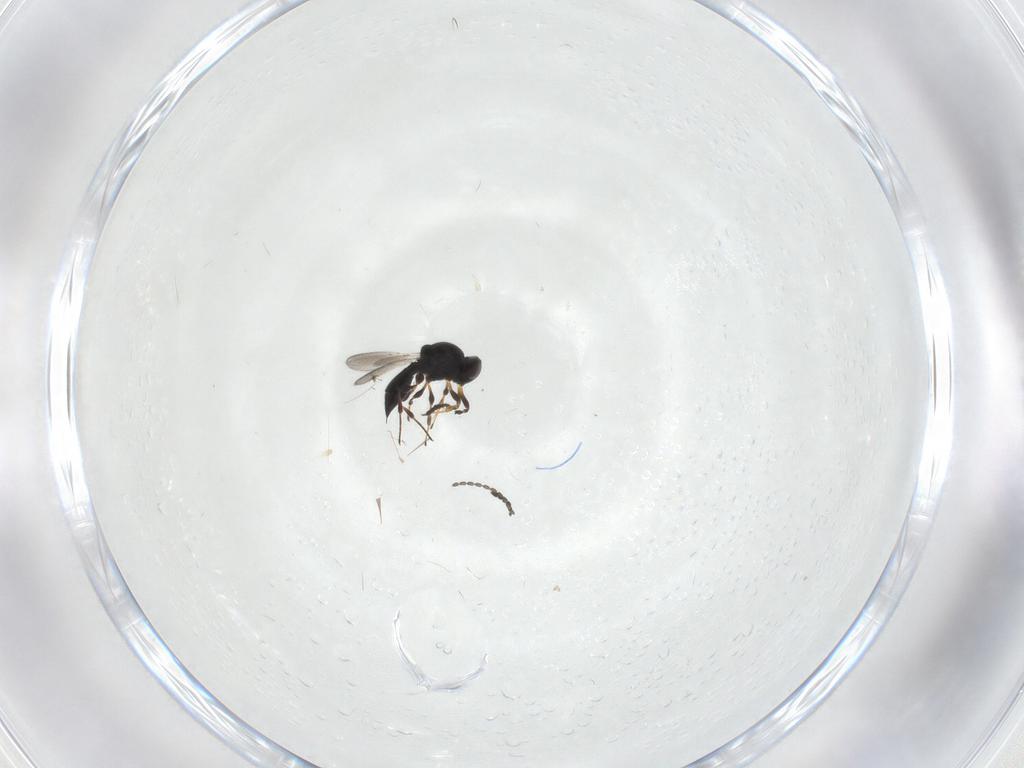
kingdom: Animalia
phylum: Arthropoda
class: Insecta
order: Hymenoptera
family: Platygastridae
